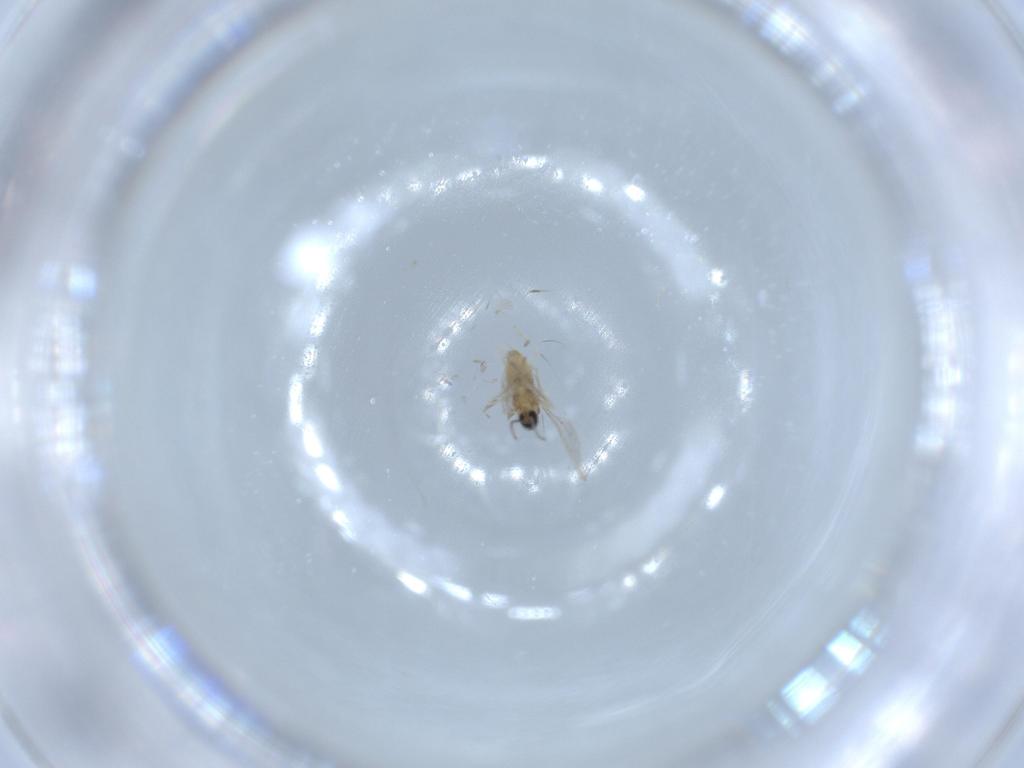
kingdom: Animalia
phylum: Arthropoda
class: Insecta
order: Diptera
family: Cecidomyiidae
